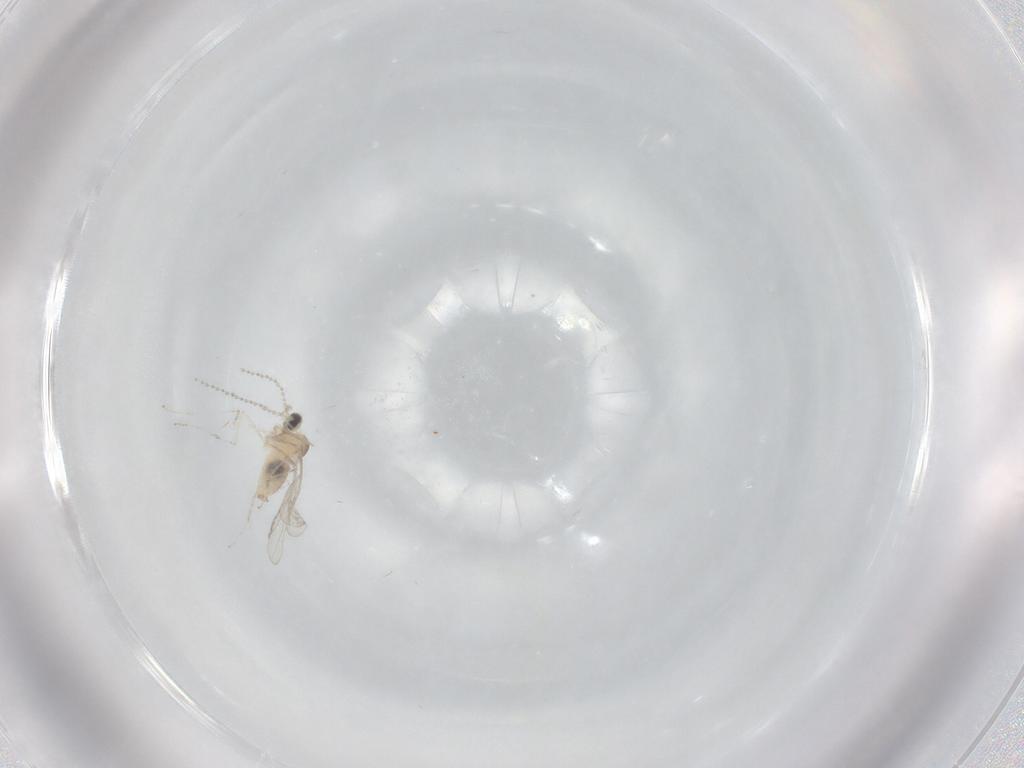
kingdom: Animalia
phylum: Arthropoda
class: Insecta
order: Diptera
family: Cecidomyiidae
